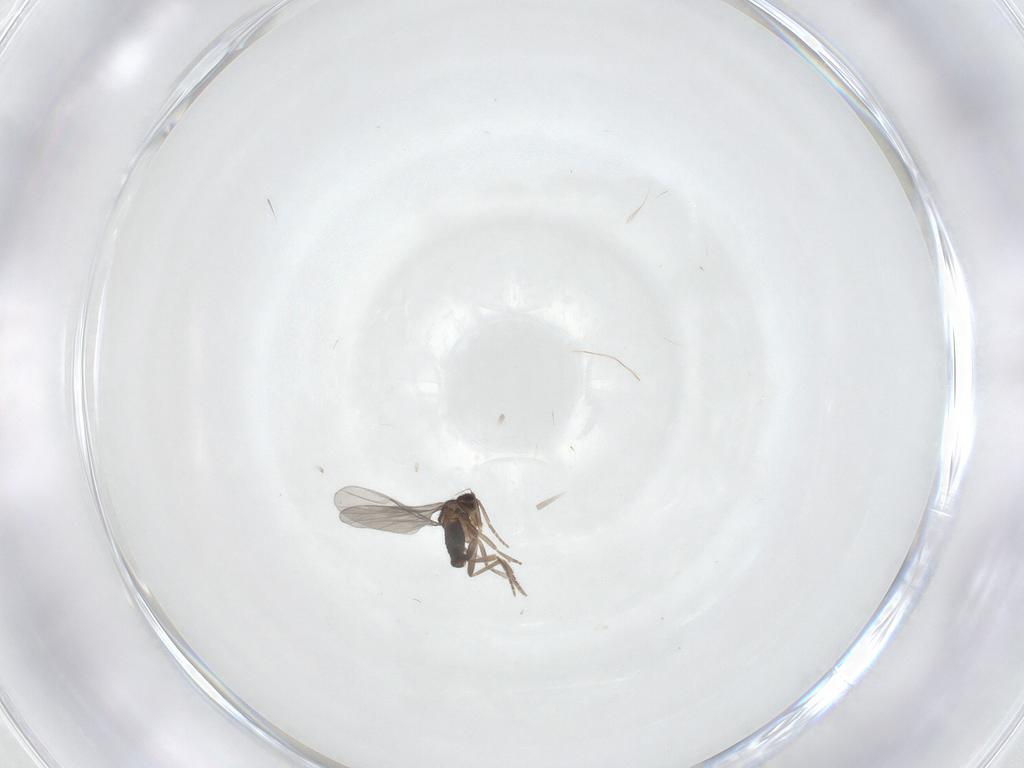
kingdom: Animalia
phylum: Arthropoda
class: Insecta
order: Diptera
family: Phoridae
